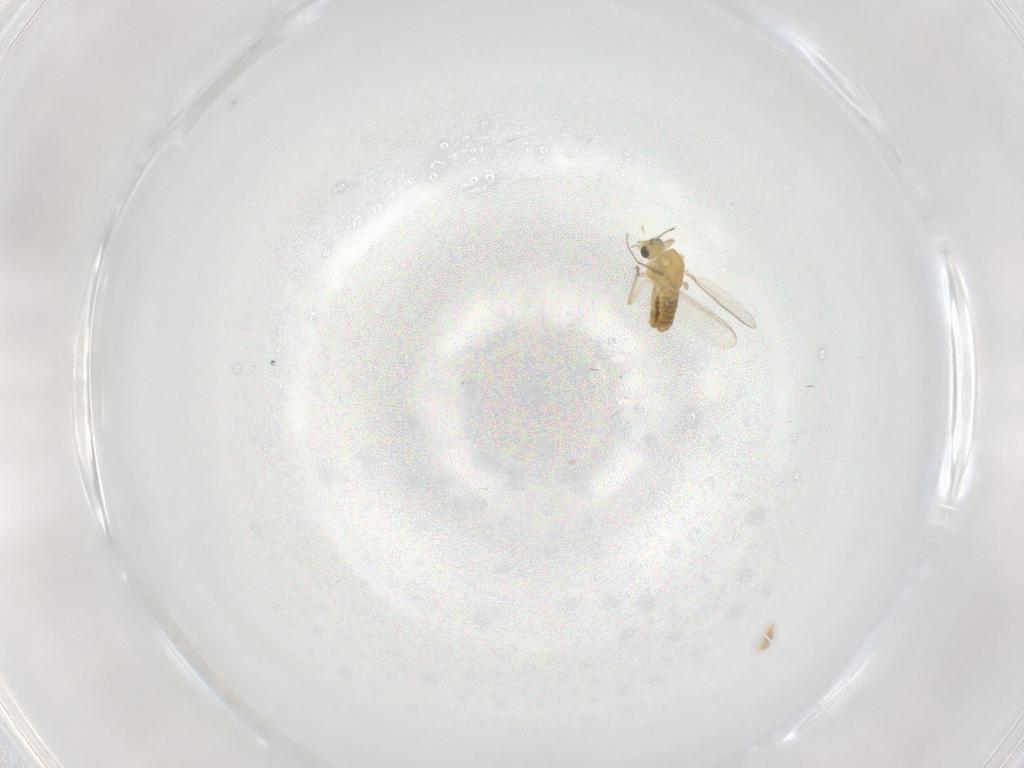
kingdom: Animalia
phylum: Arthropoda
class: Insecta
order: Diptera
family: Chironomidae
